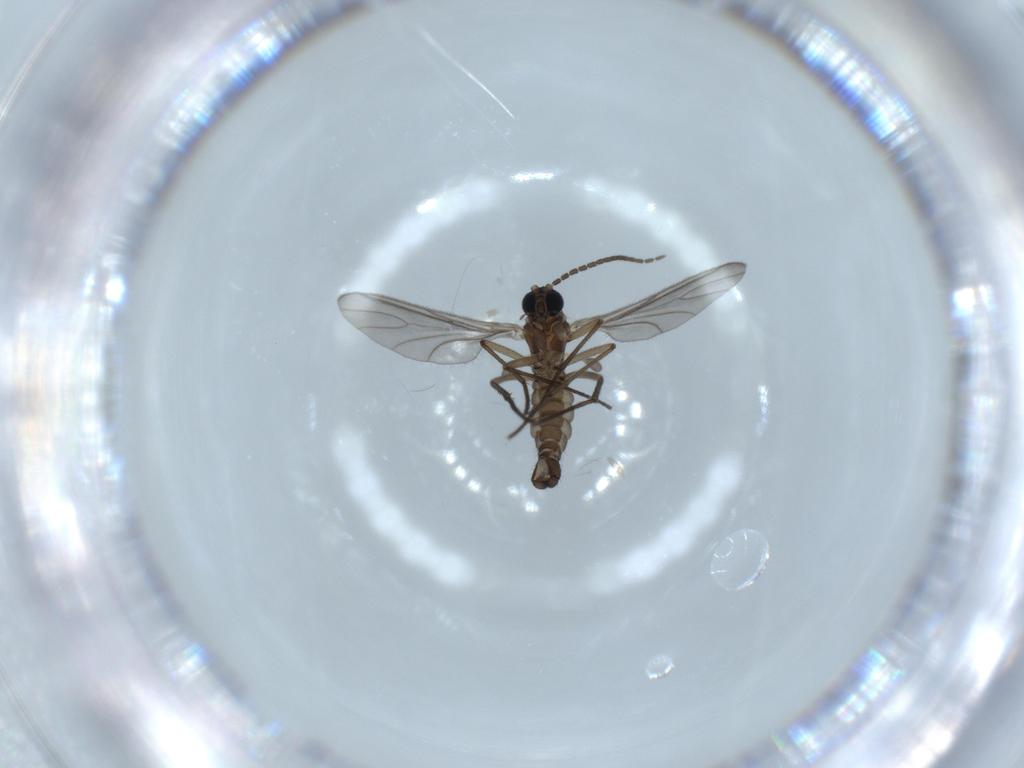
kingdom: Animalia
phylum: Arthropoda
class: Insecta
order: Diptera
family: Sciaridae
